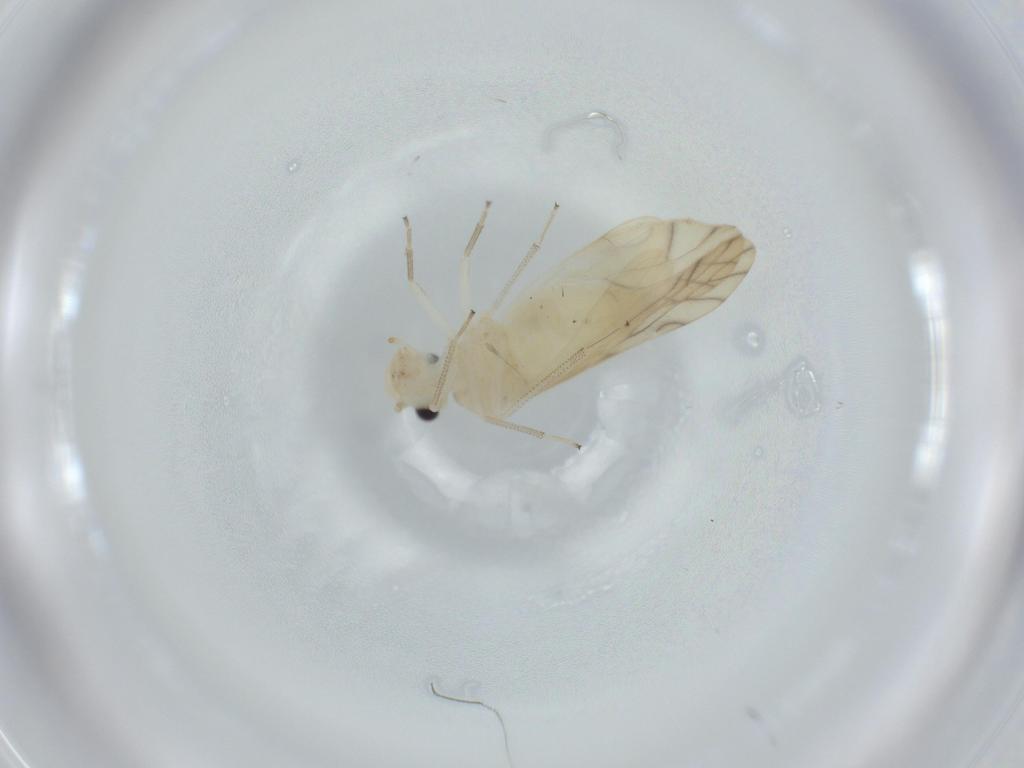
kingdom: Animalia
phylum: Arthropoda
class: Insecta
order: Psocodea
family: Caeciliusidae
